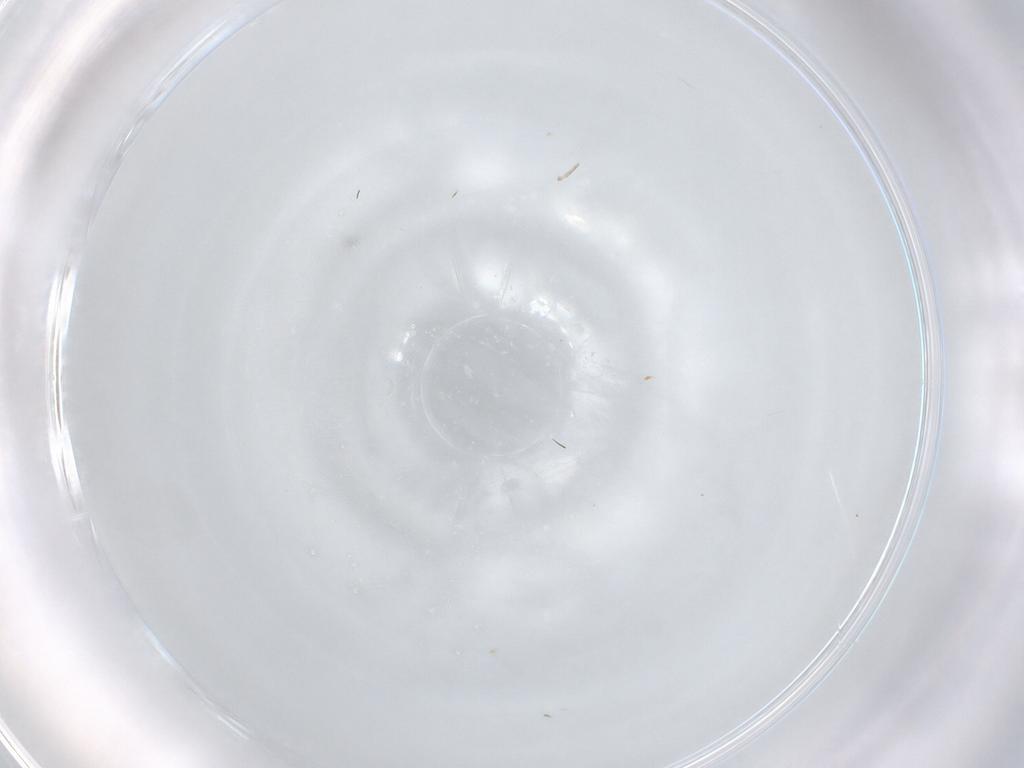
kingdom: Animalia
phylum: Arthropoda
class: Insecta
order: Diptera
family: Cecidomyiidae
